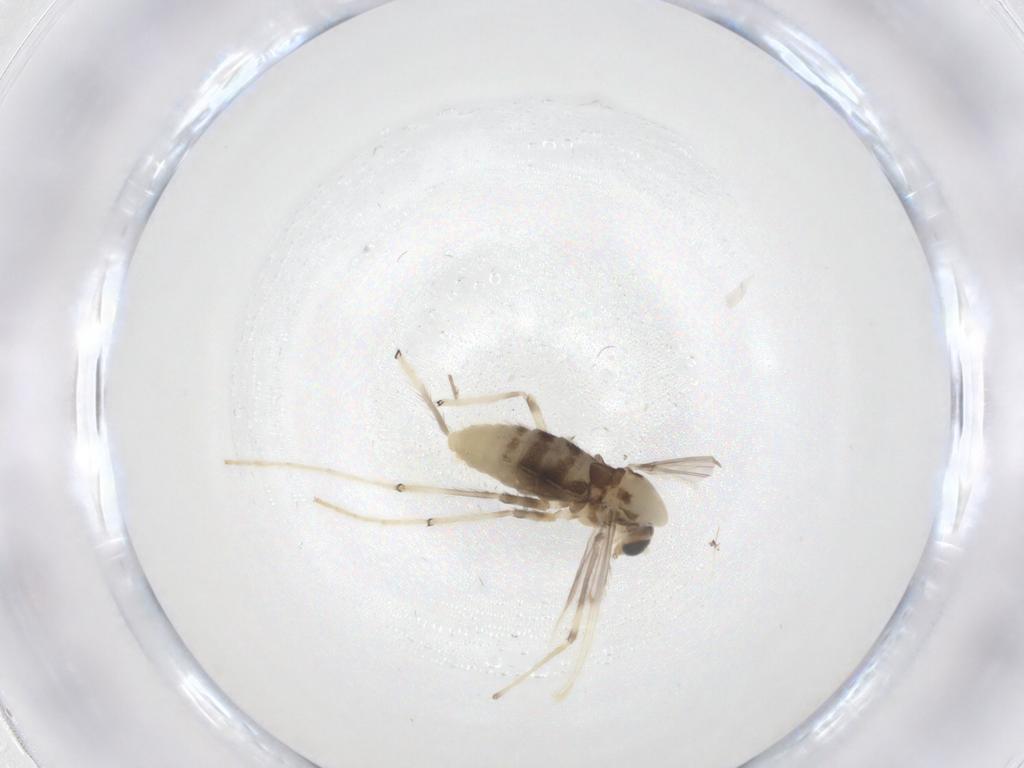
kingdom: Animalia
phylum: Arthropoda
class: Insecta
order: Diptera
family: Chironomidae
